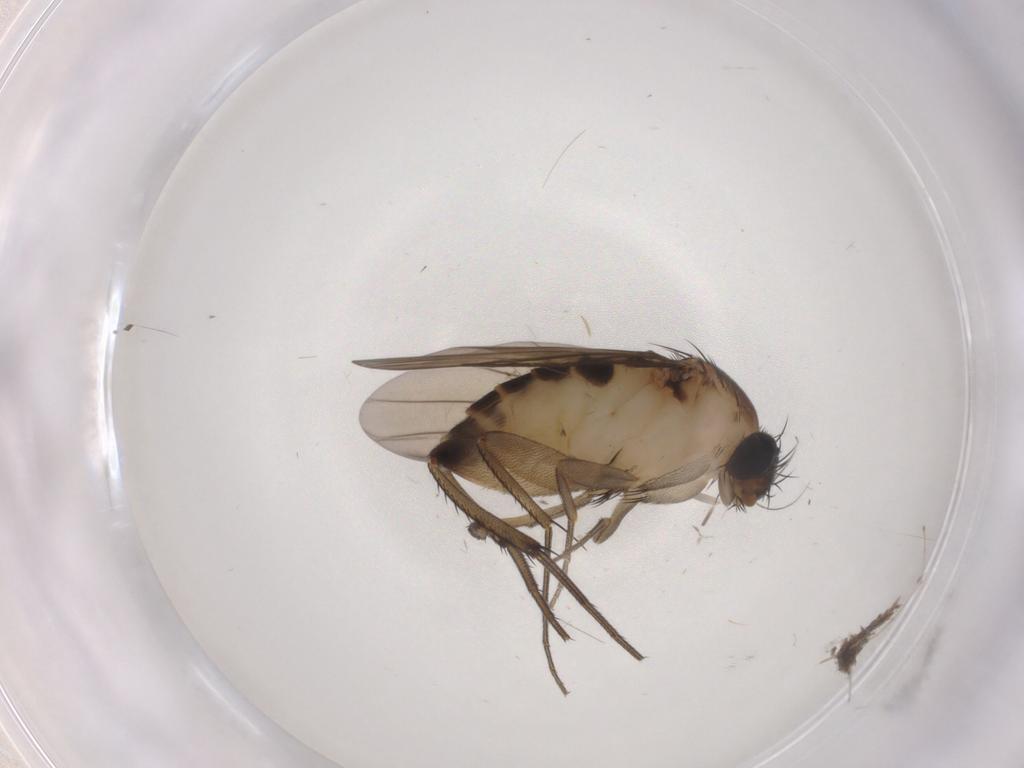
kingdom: Animalia
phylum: Arthropoda
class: Insecta
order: Diptera
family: Phoridae
